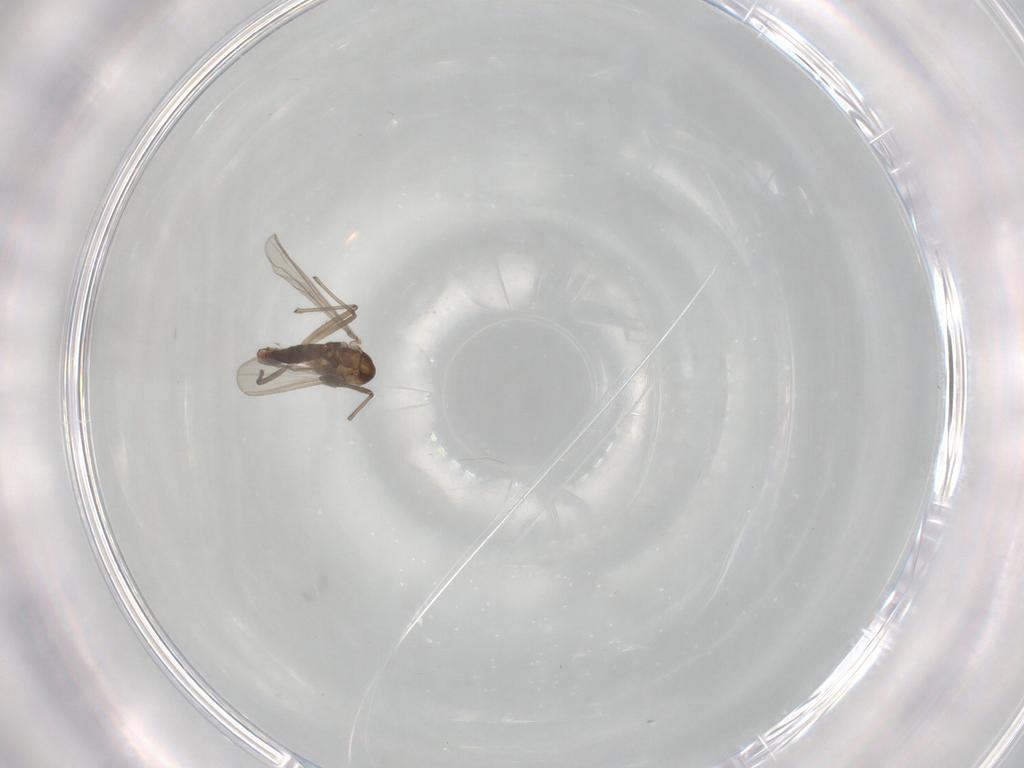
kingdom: Animalia
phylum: Arthropoda
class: Insecta
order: Diptera
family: Chironomidae
